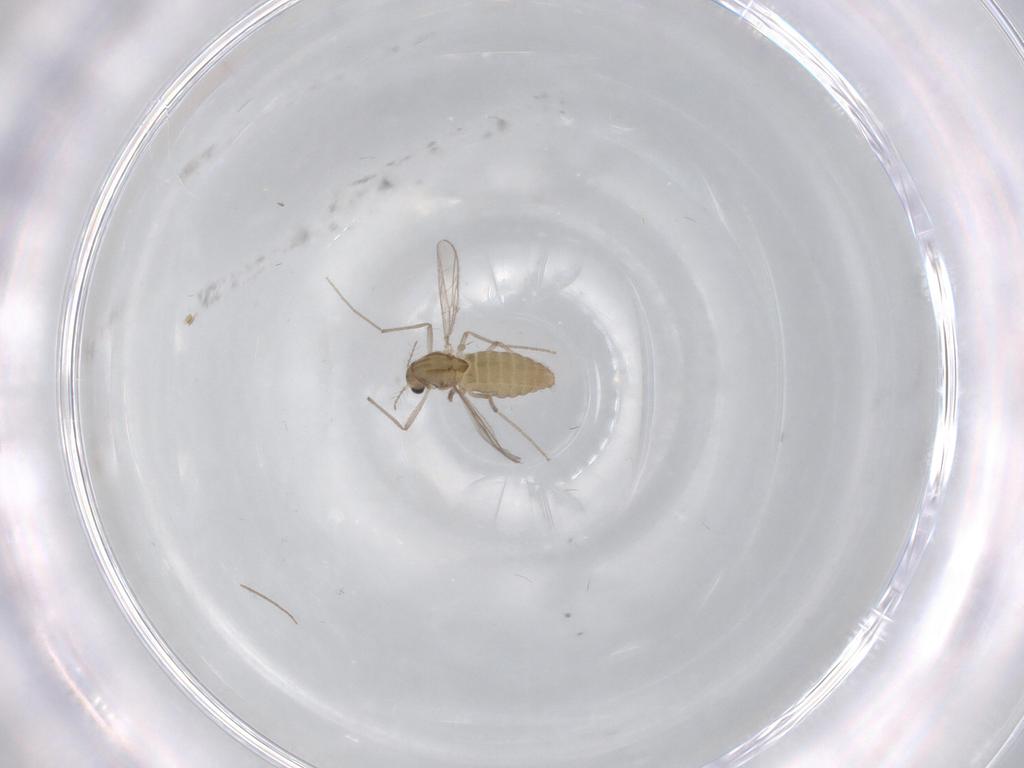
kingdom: Animalia
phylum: Arthropoda
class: Insecta
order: Diptera
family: Chironomidae
